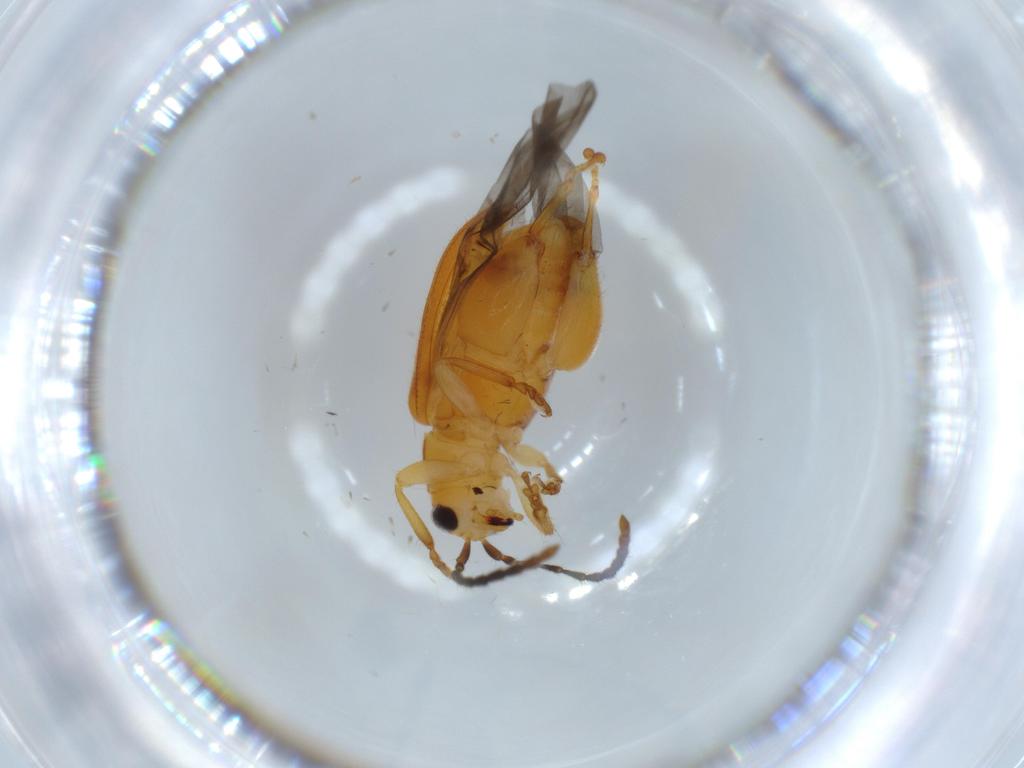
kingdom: Animalia
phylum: Arthropoda
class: Insecta
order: Coleoptera
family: Chrysomelidae
